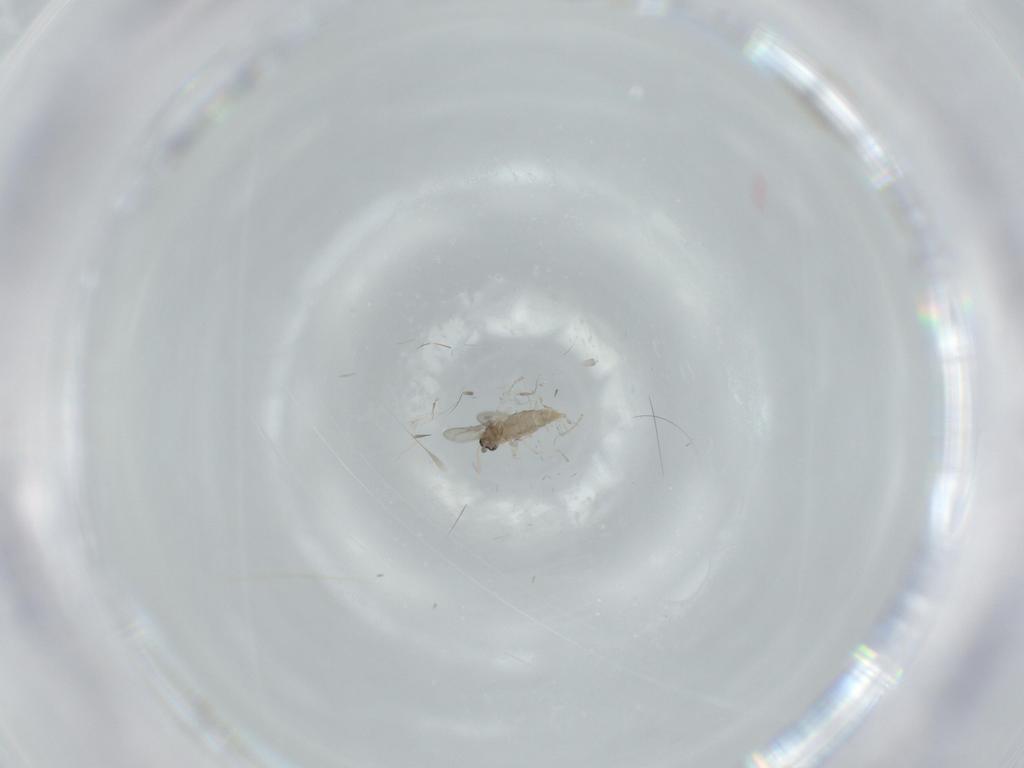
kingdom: Animalia
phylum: Arthropoda
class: Insecta
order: Diptera
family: Cecidomyiidae
